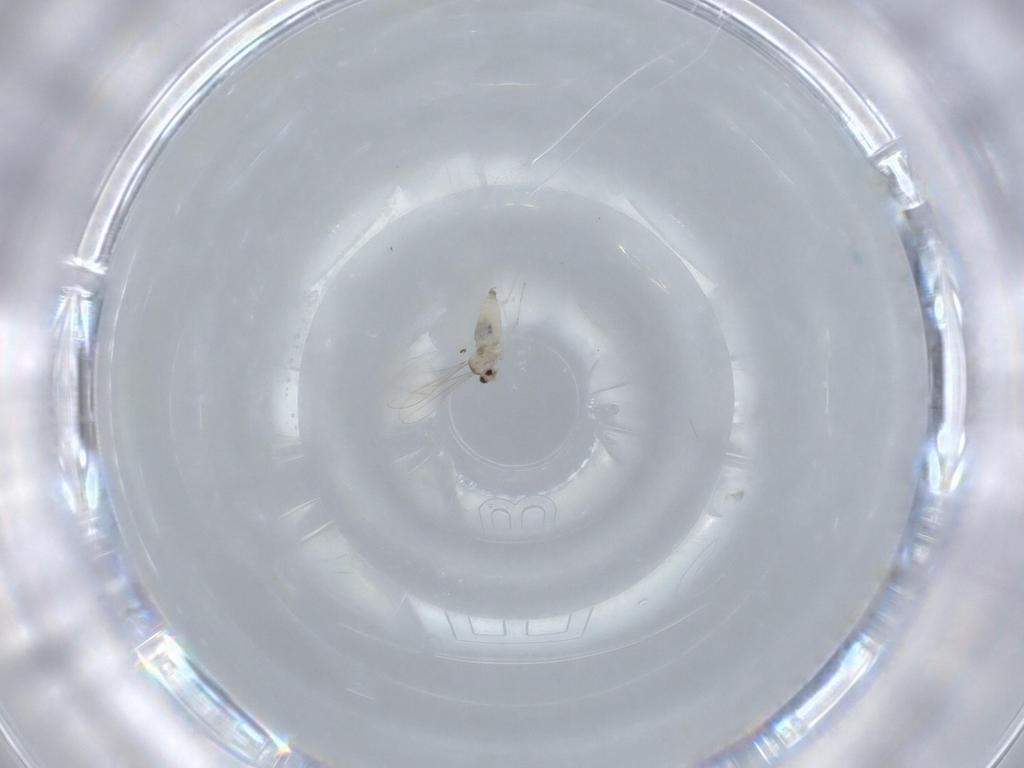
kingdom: Animalia
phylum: Arthropoda
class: Insecta
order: Diptera
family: Cecidomyiidae
